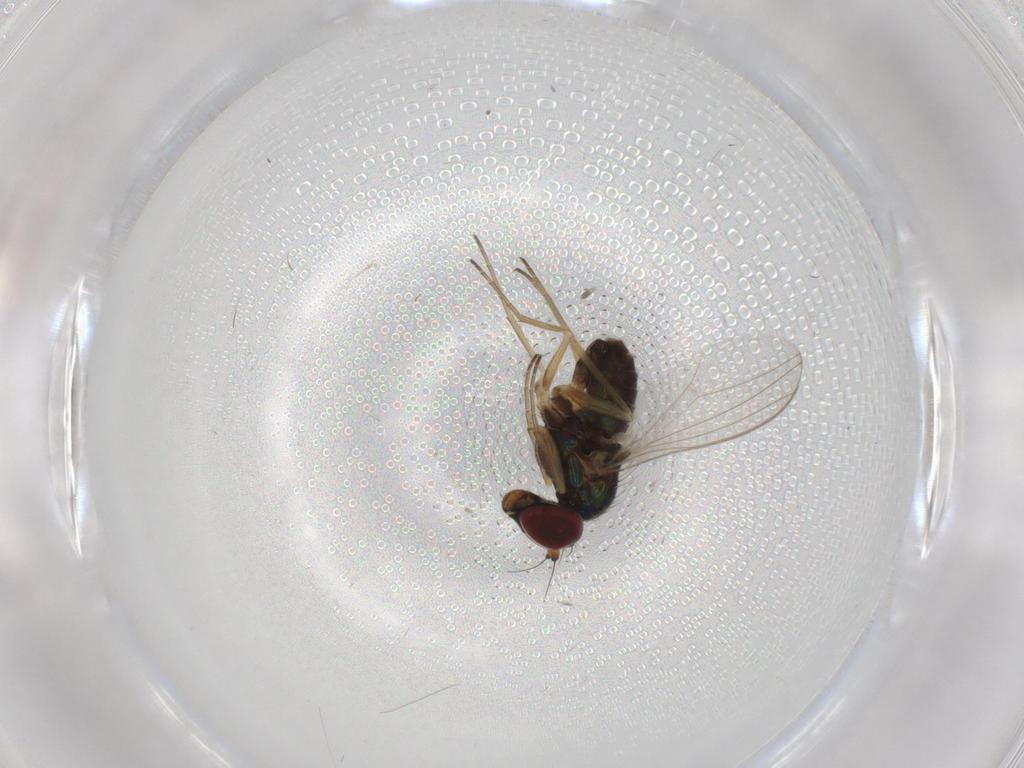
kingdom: Animalia
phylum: Arthropoda
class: Insecta
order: Diptera
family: Dolichopodidae
